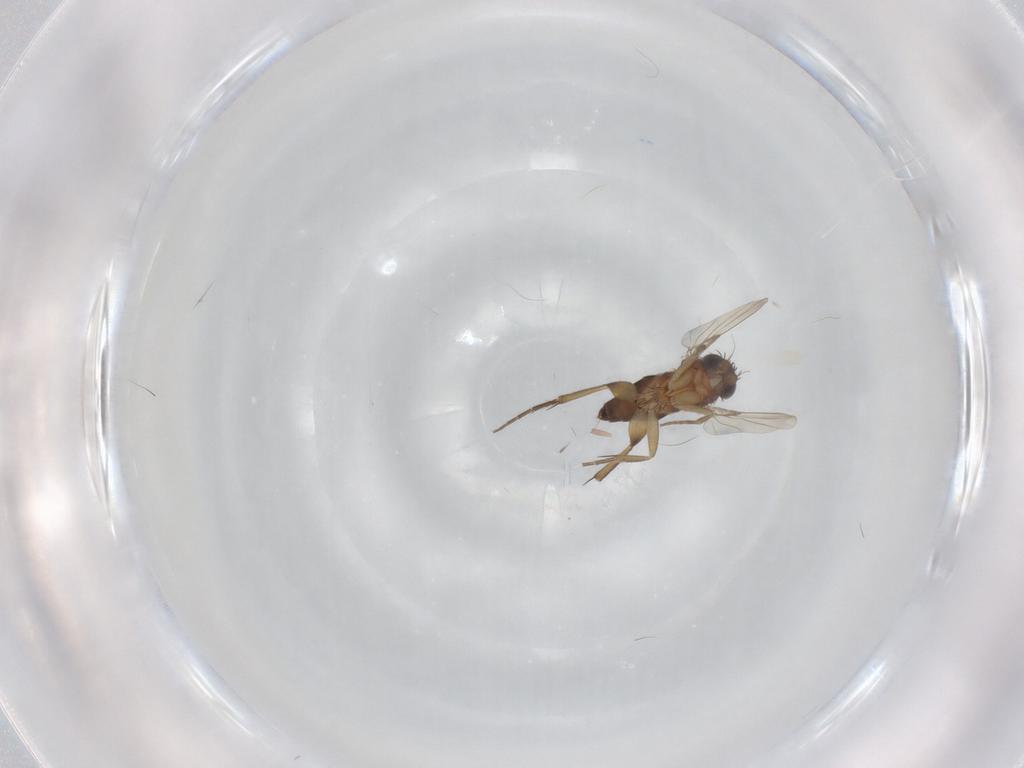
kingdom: Animalia
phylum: Arthropoda
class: Insecta
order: Diptera
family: Phoridae
